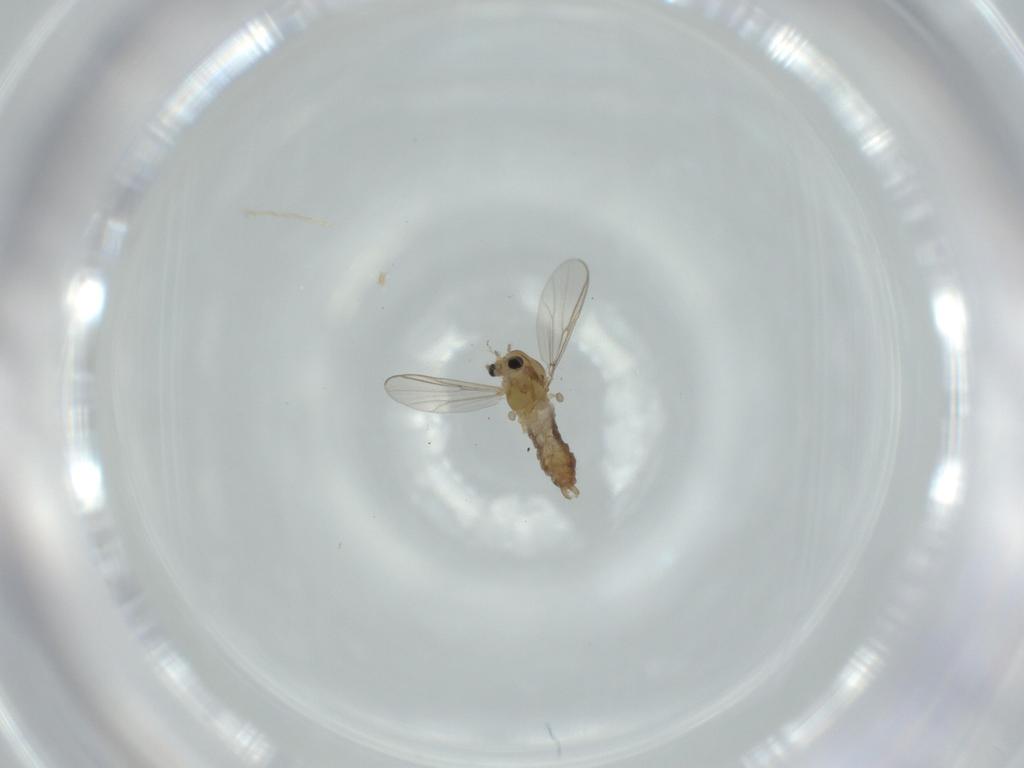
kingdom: Animalia
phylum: Arthropoda
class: Insecta
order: Diptera
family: Chironomidae
